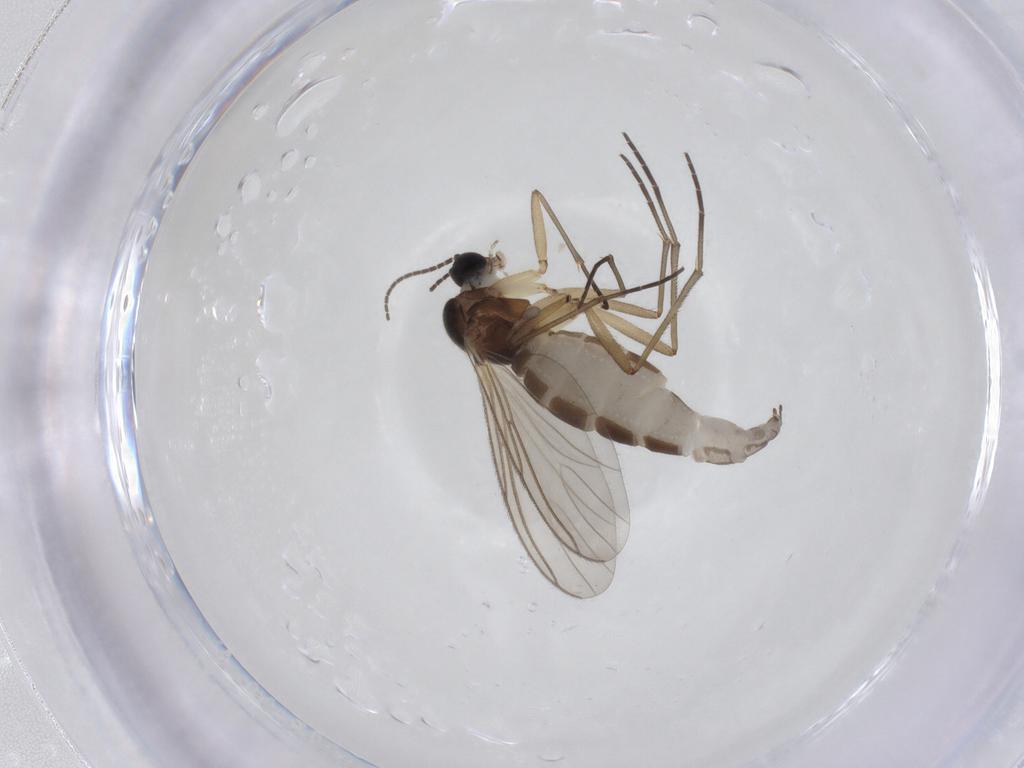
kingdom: Animalia
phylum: Arthropoda
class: Insecta
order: Diptera
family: Sciaridae
